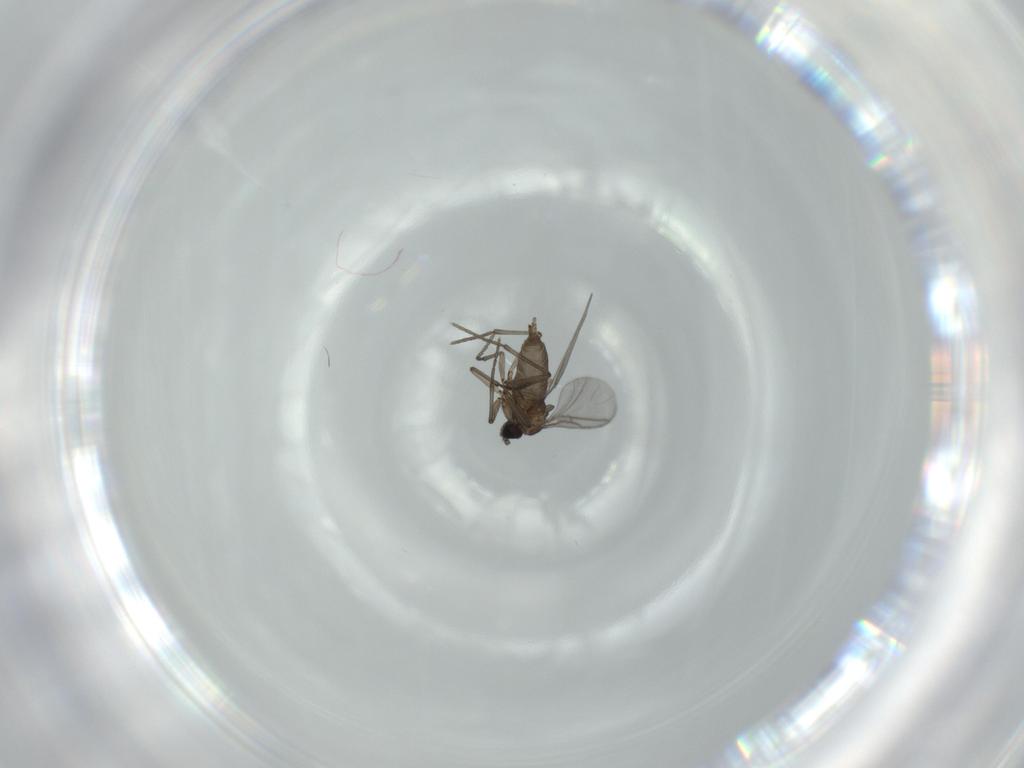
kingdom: Animalia
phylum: Arthropoda
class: Insecta
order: Diptera
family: Sciaridae
